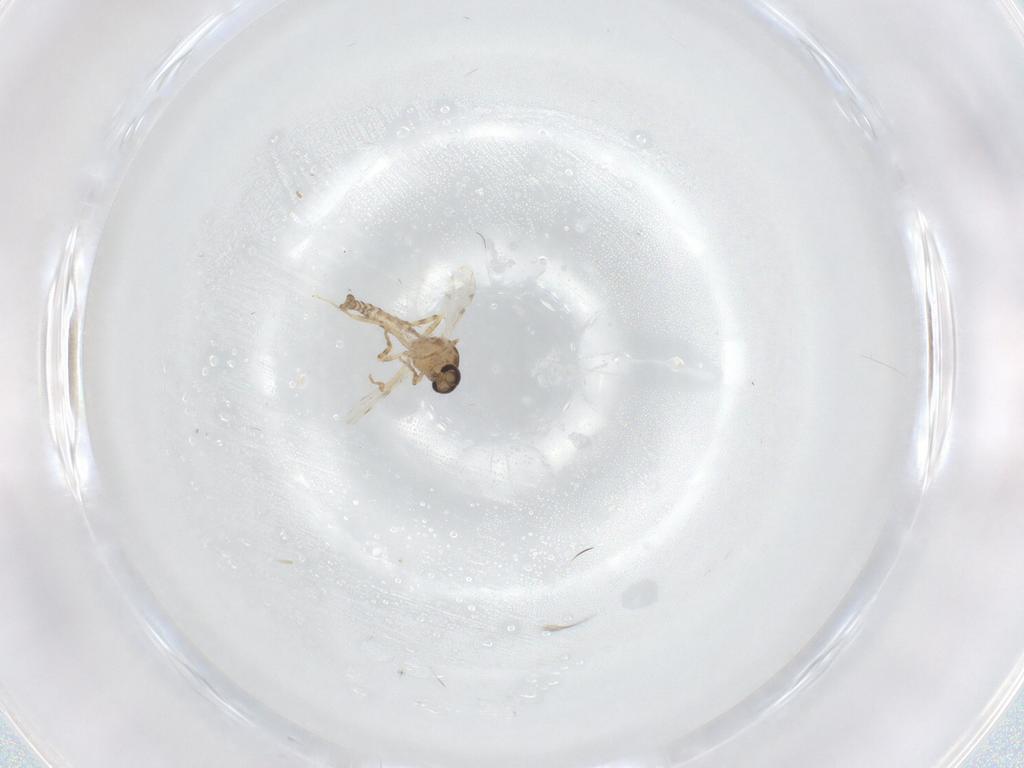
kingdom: Animalia
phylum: Arthropoda
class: Insecta
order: Diptera
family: Ceratopogonidae
